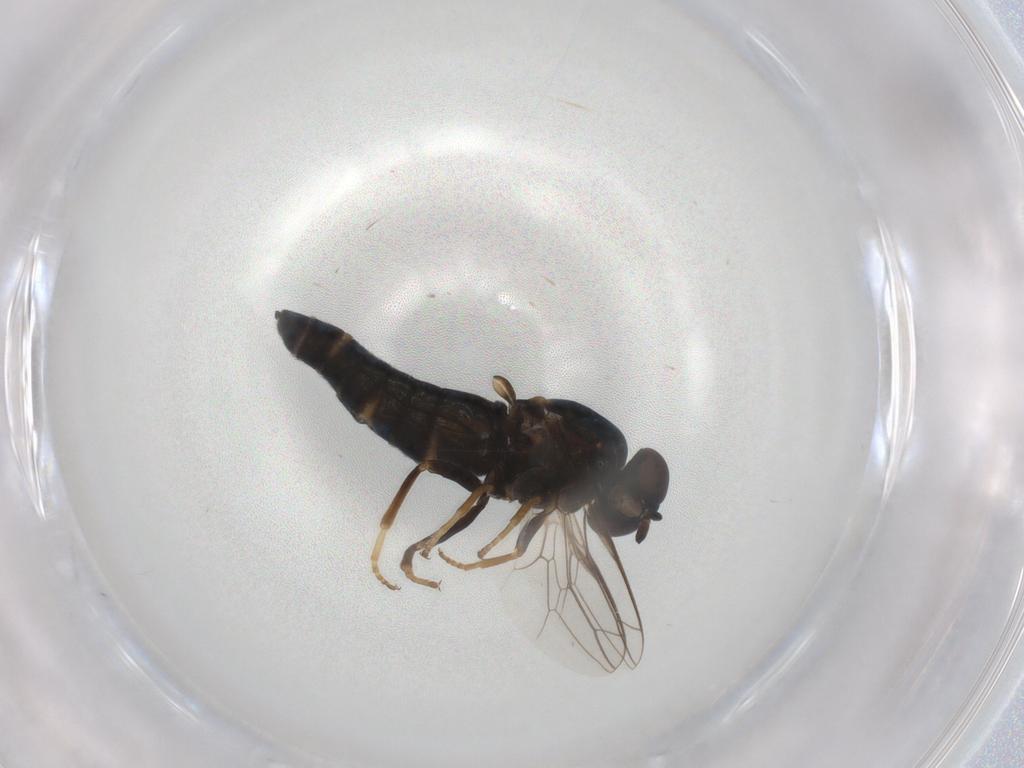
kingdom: Animalia
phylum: Arthropoda
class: Insecta
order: Diptera
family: Scenopinidae
